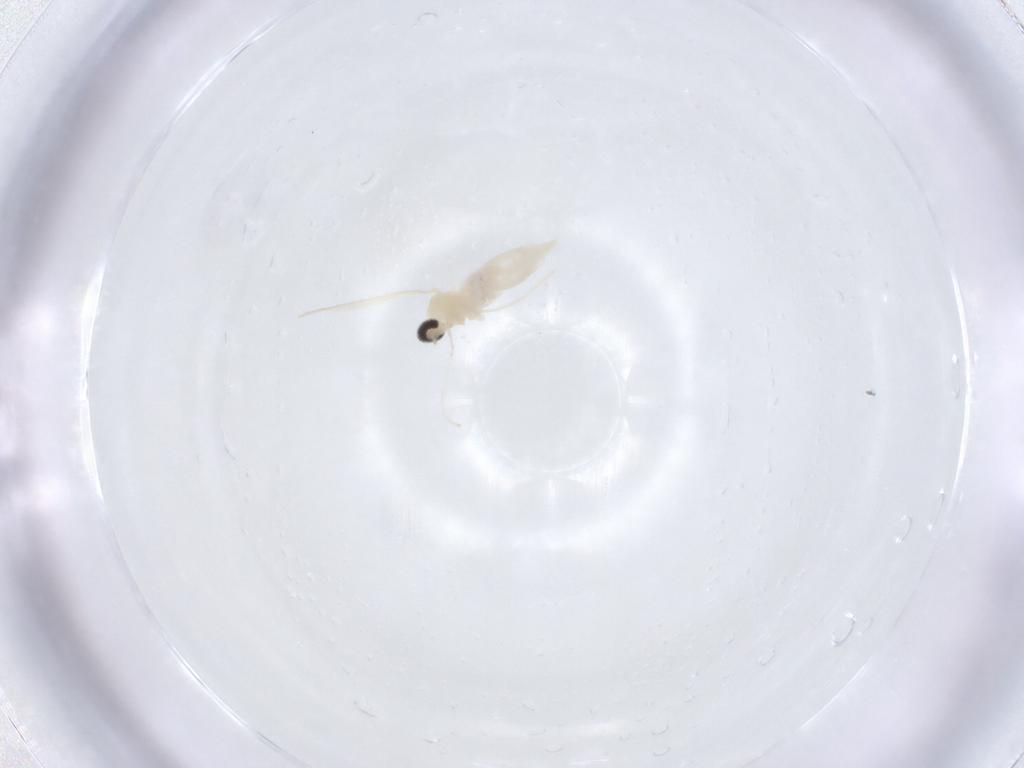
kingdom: Animalia
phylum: Arthropoda
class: Insecta
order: Diptera
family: Cecidomyiidae
